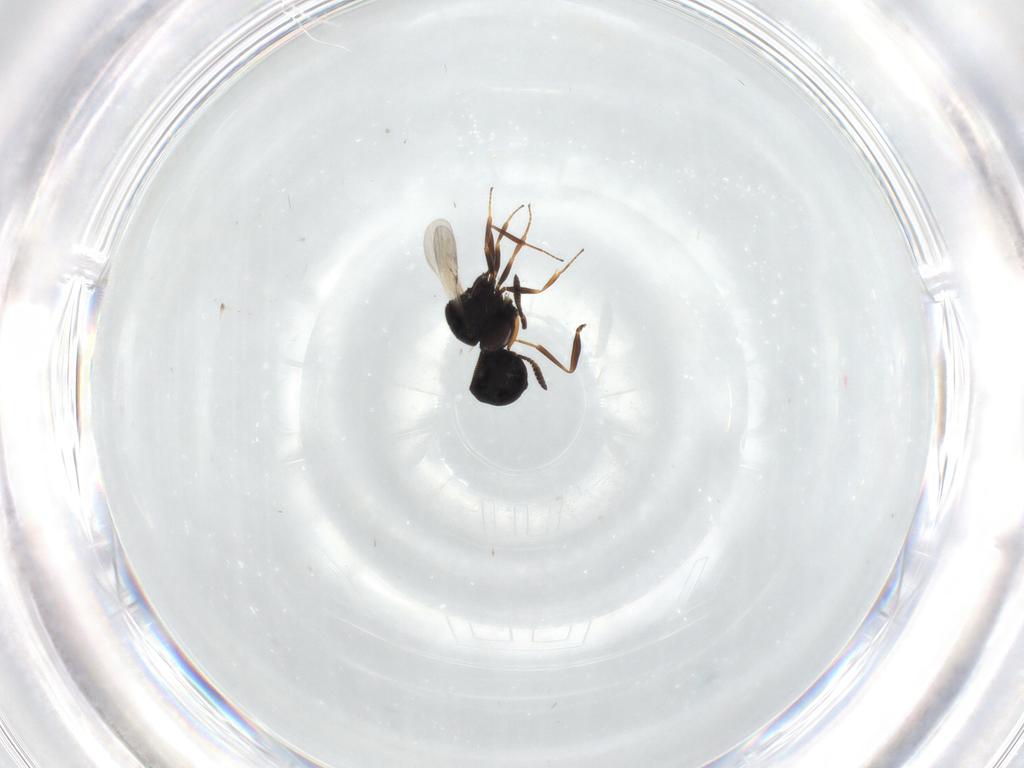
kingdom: Animalia
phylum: Arthropoda
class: Insecta
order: Hymenoptera
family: Scelionidae
